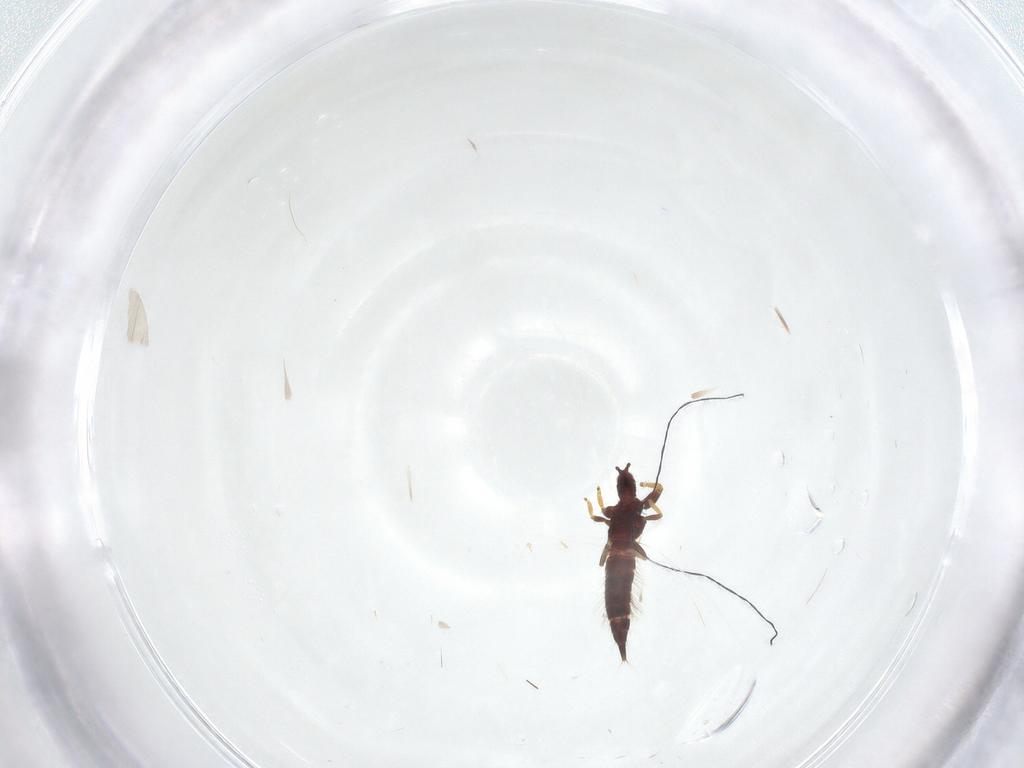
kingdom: Animalia
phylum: Arthropoda
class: Insecta
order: Thysanoptera
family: Phlaeothripidae
